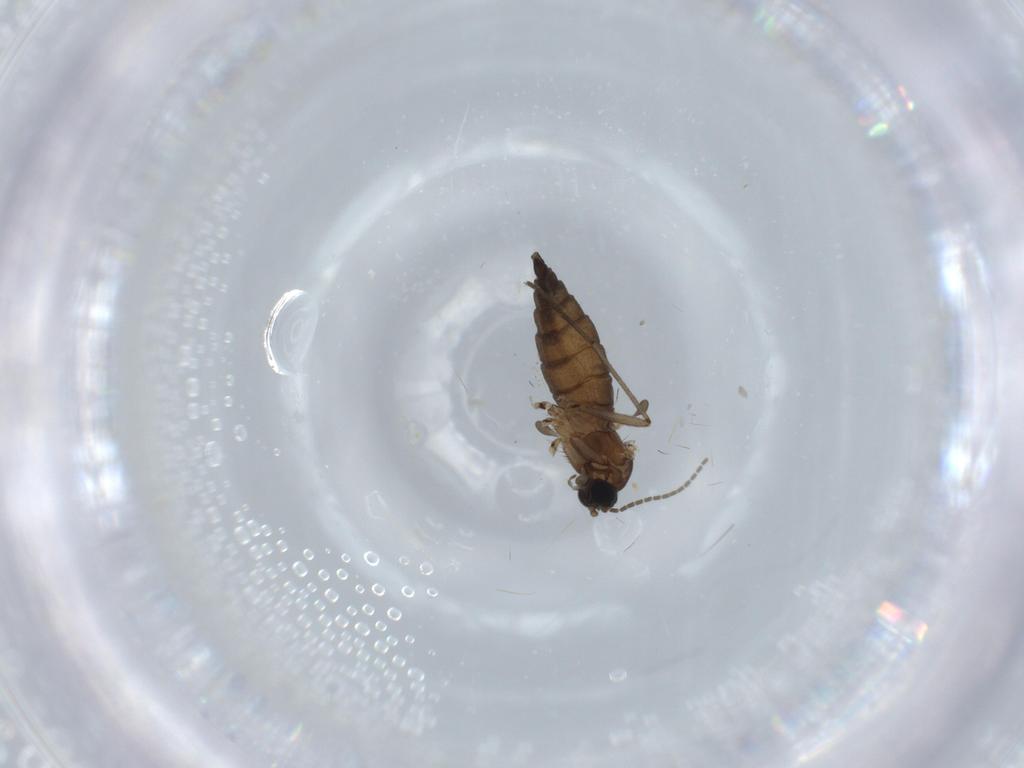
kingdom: Animalia
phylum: Arthropoda
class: Insecta
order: Diptera
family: Sciaridae
